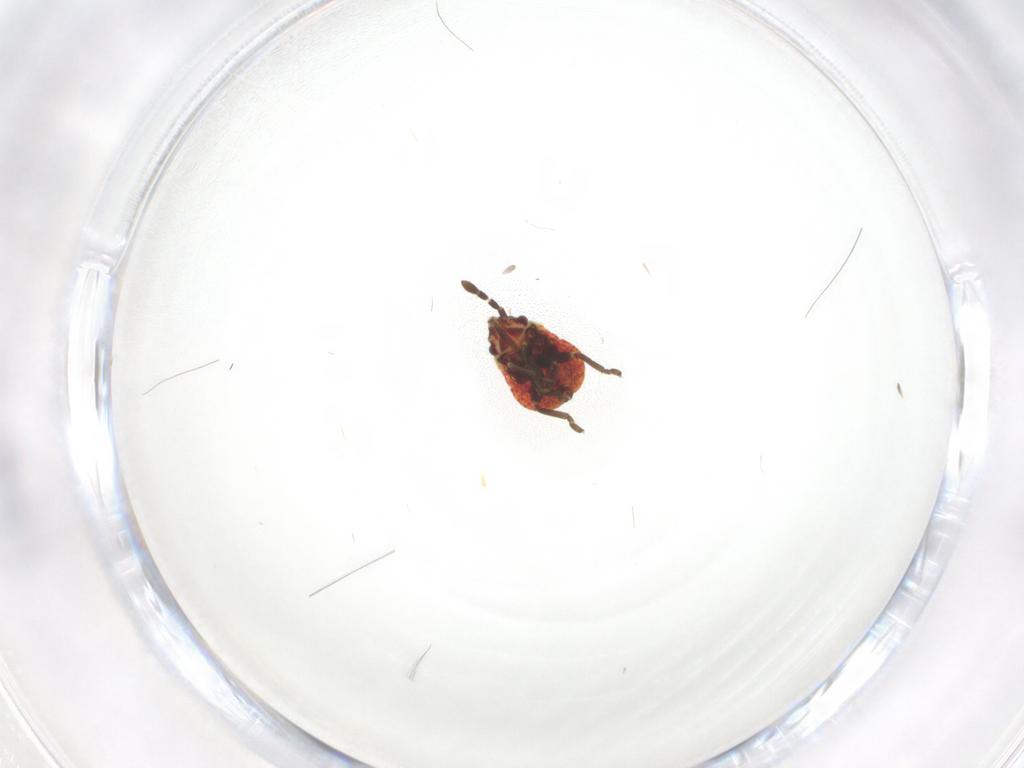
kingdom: Animalia
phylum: Arthropoda
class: Insecta
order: Hemiptera
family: Lygaeidae
